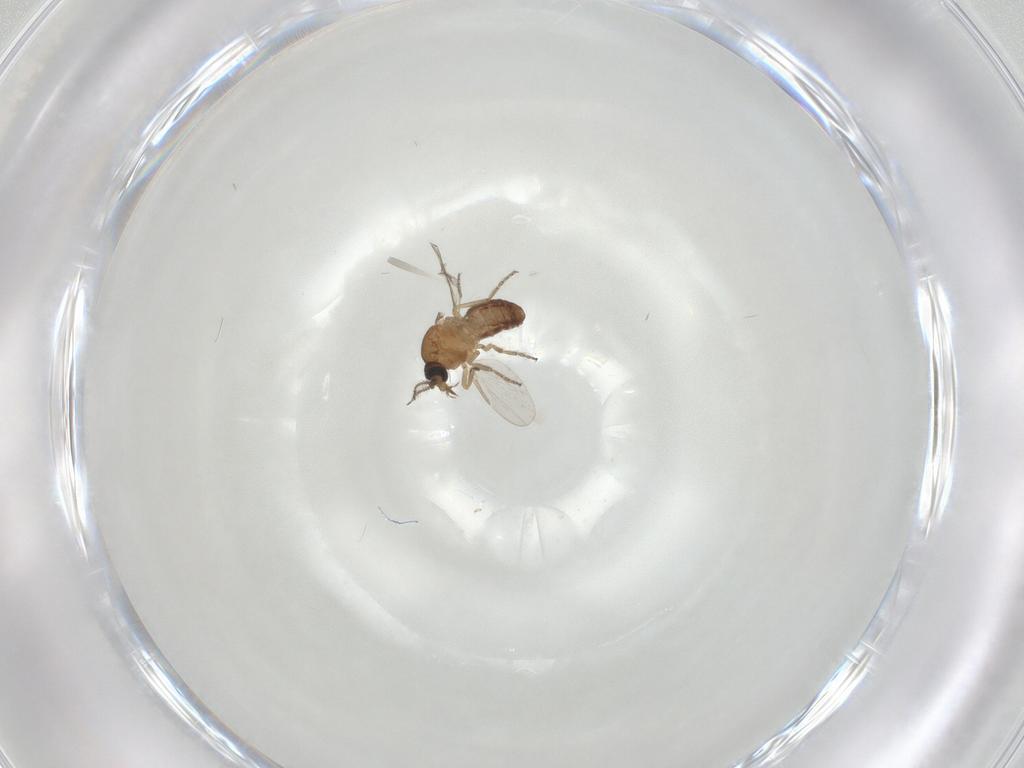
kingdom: Animalia
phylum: Arthropoda
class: Insecta
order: Diptera
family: Ceratopogonidae
